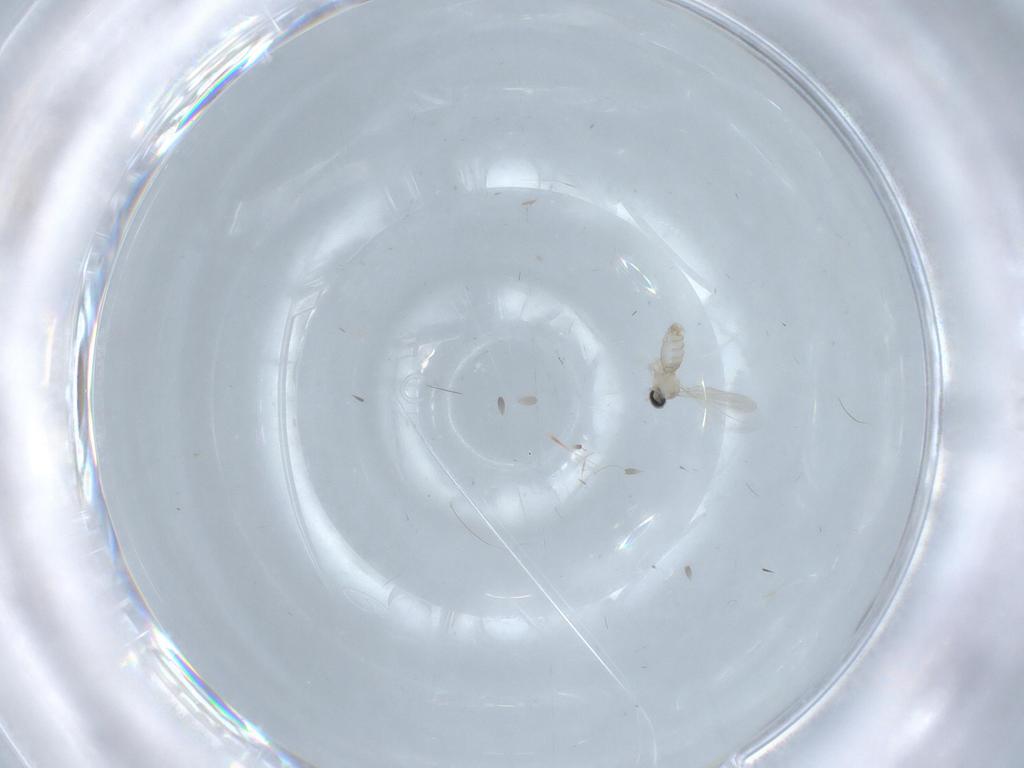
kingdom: Animalia
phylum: Arthropoda
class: Insecta
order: Diptera
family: Cecidomyiidae
